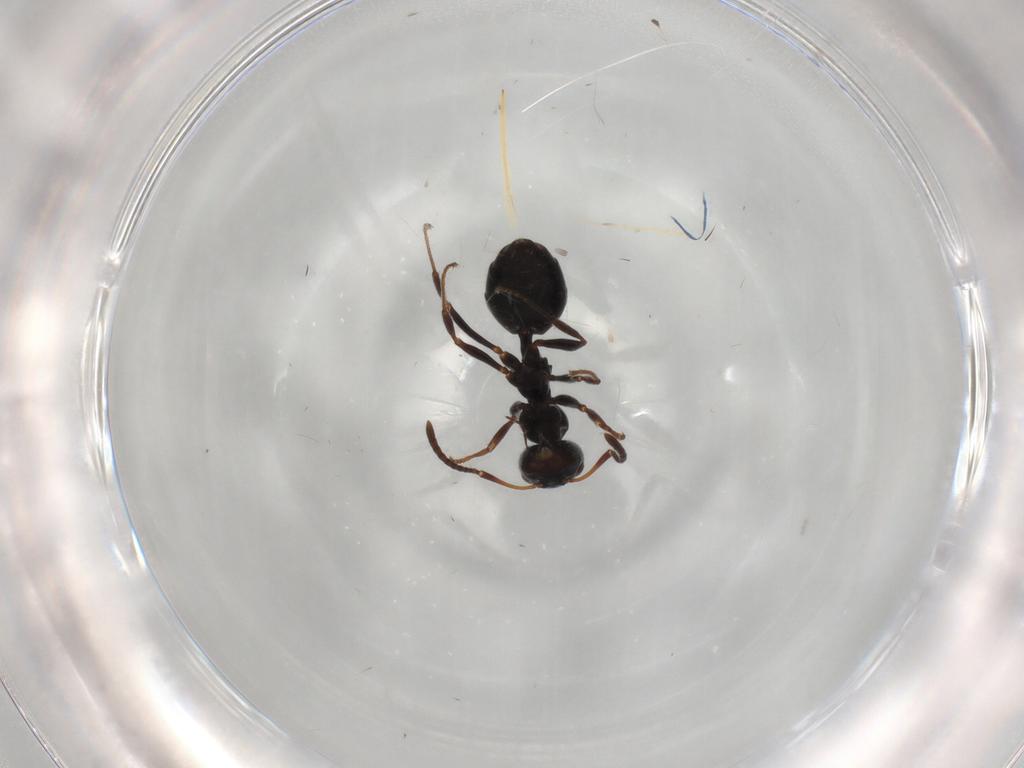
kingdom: Animalia
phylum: Arthropoda
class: Insecta
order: Hymenoptera
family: Formicidae
